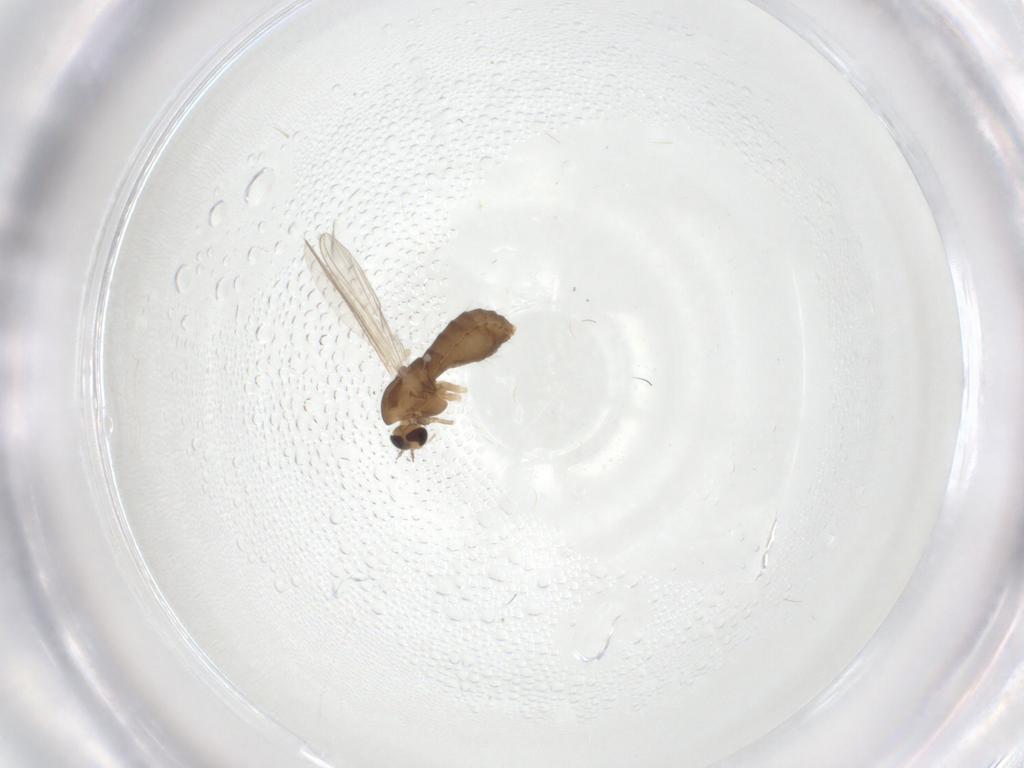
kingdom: Animalia
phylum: Arthropoda
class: Insecta
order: Diptera
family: Chironomidae
